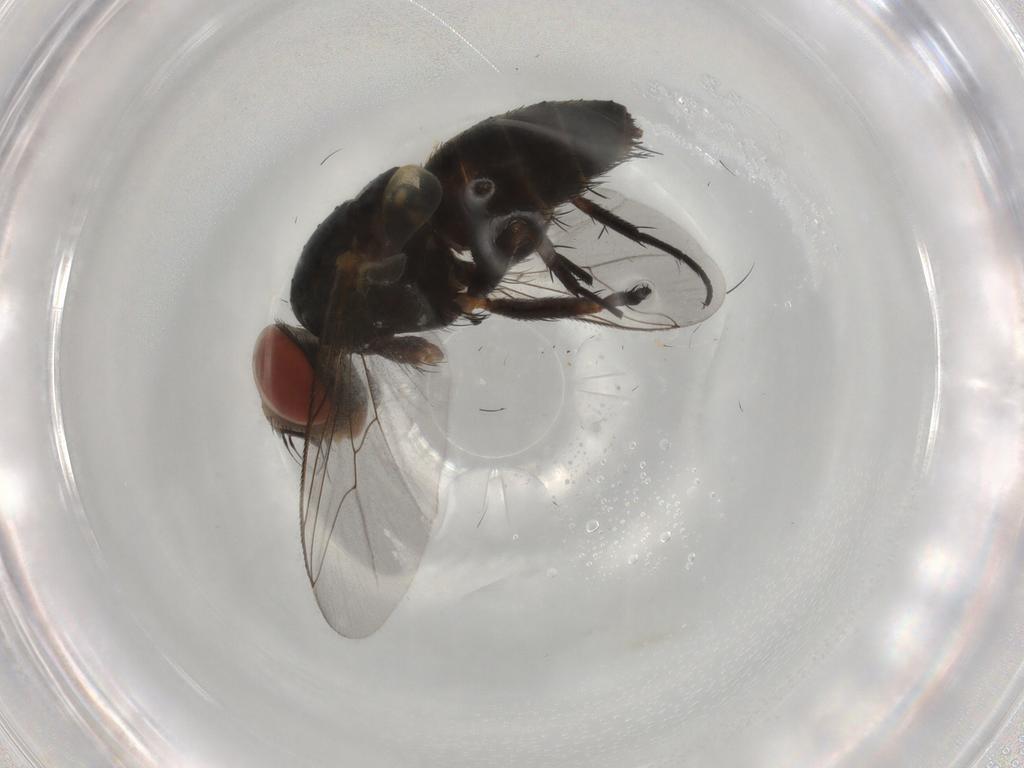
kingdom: Animalia
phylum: Arthropoda
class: Insecta
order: Diptera
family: Sarcophagidae
